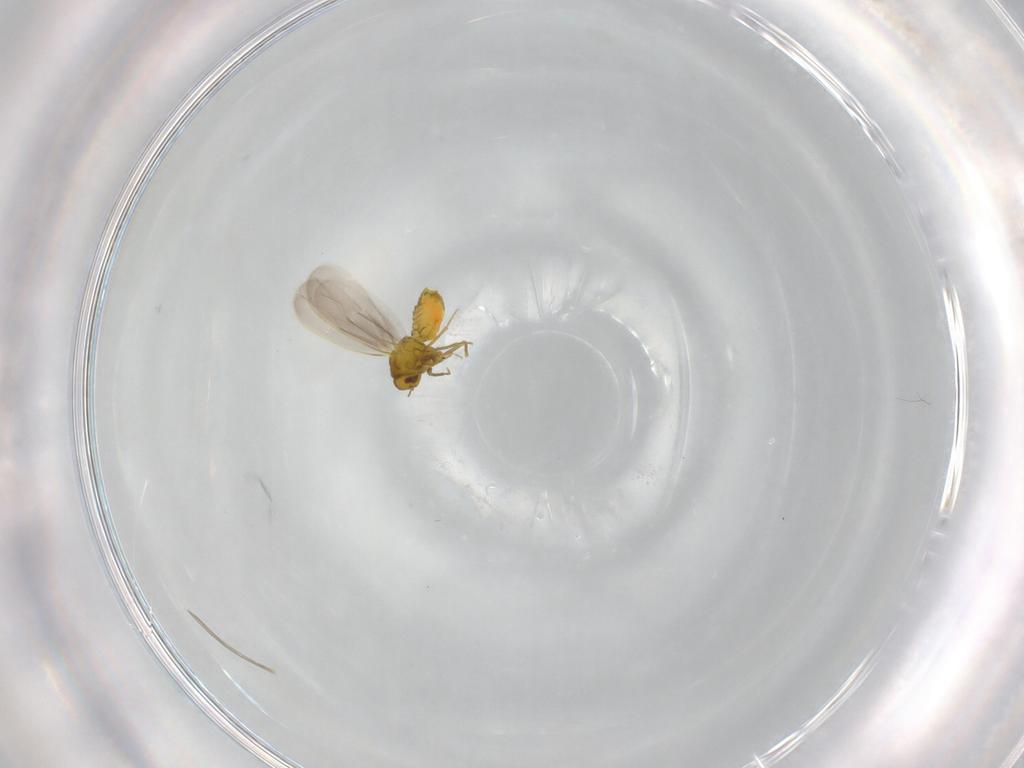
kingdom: Animalia
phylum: Arthropoda
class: Insecta
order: Hemiptera
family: Aleyrodidae
